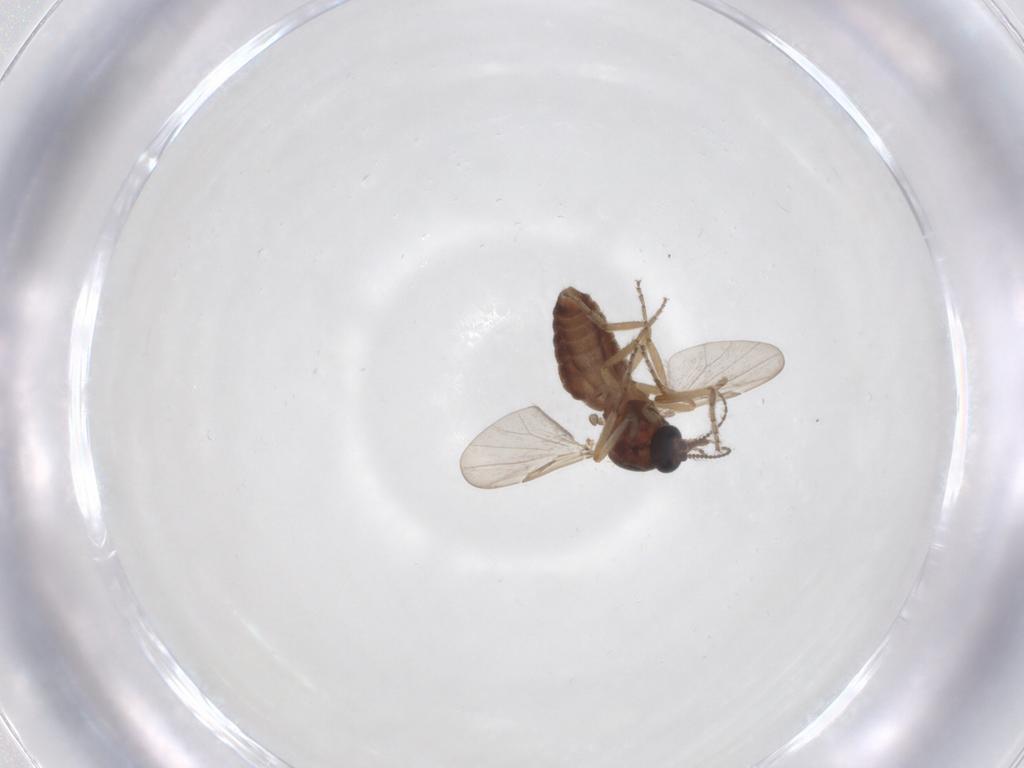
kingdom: Animalia
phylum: Arthropoda
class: Insecta
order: Diptera
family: Ceratopogonidae
